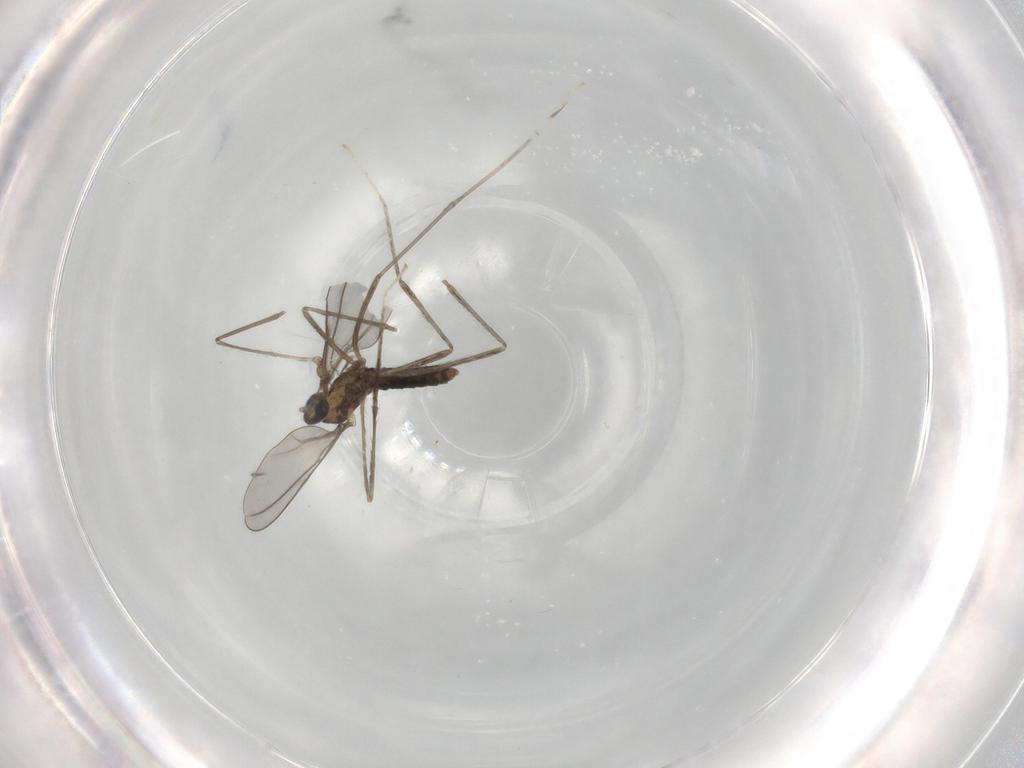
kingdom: Animalia
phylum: Arthropoda
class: Insecta
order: Diptera
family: Cecidomyiidae
